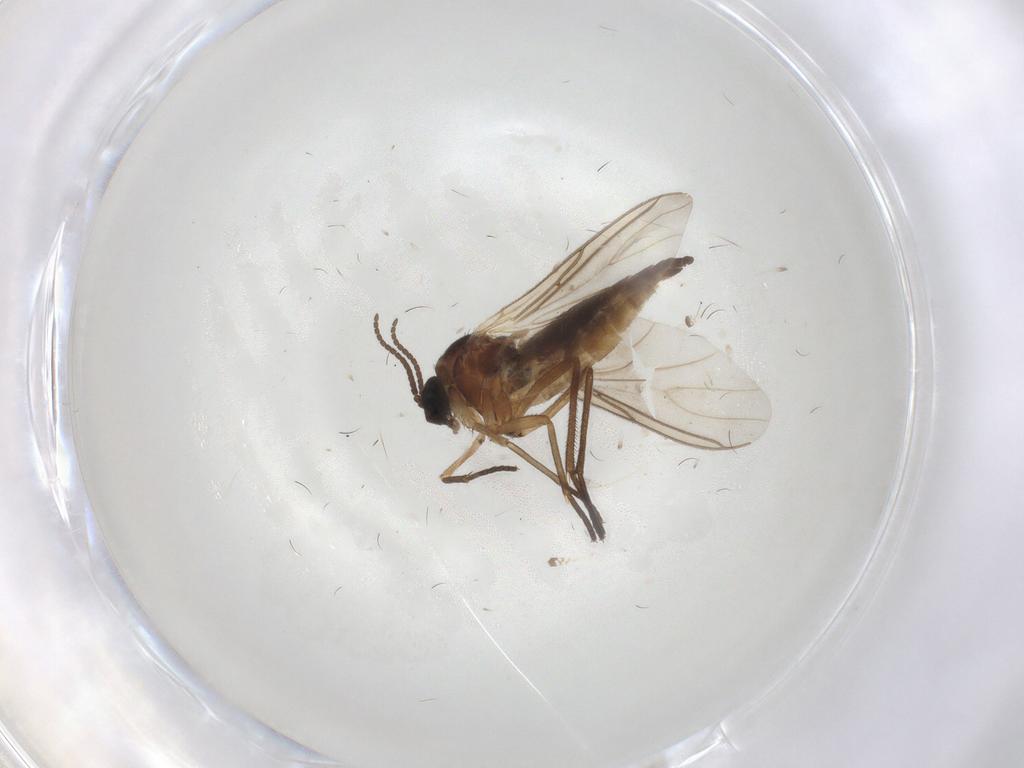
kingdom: Animalia
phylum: Arthropoda
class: Insecta
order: Diptera
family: Sciaridae
